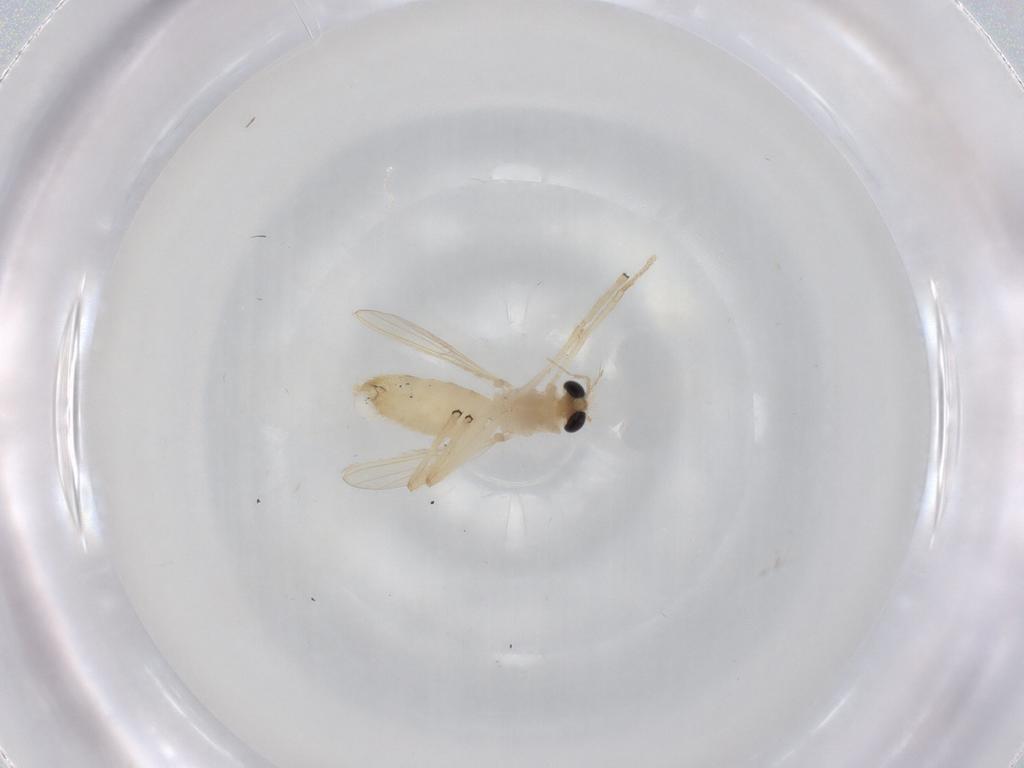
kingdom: Animalia
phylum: Arthropoda
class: Insecta
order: Diptera
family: Chironomidae
